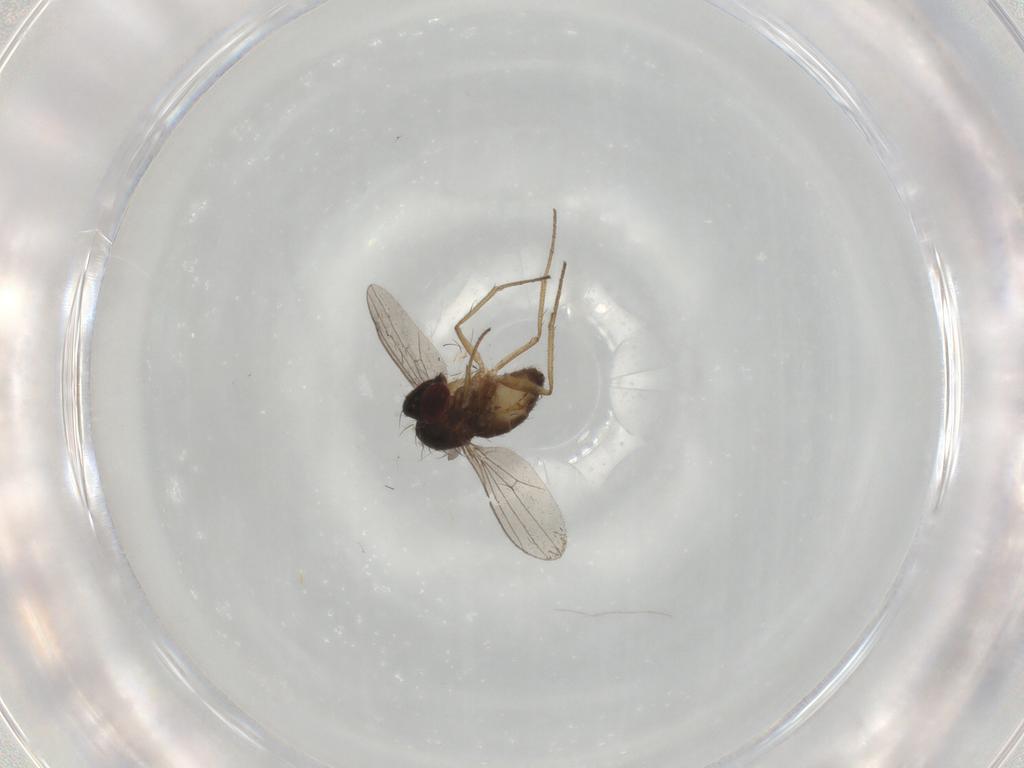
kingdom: Animalia
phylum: Arthropoda
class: Insecta
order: Diptera
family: Dolichopodidae
